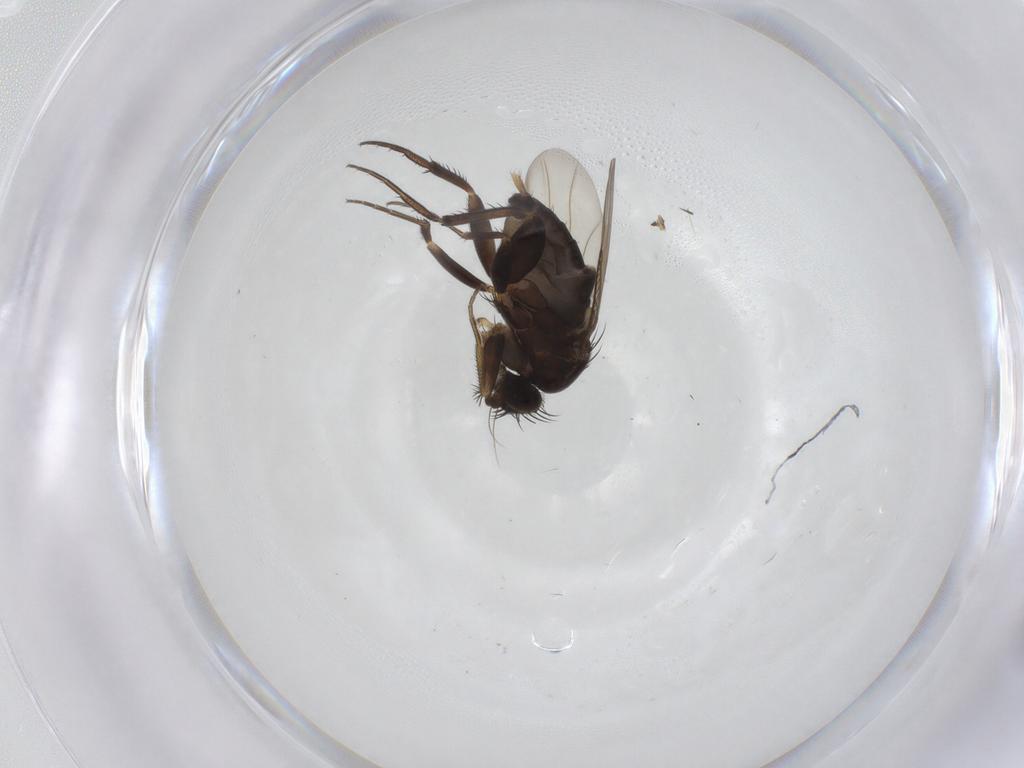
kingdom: Animalia
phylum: Arthropoda
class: Insecta
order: Diptera
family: Phoridae
